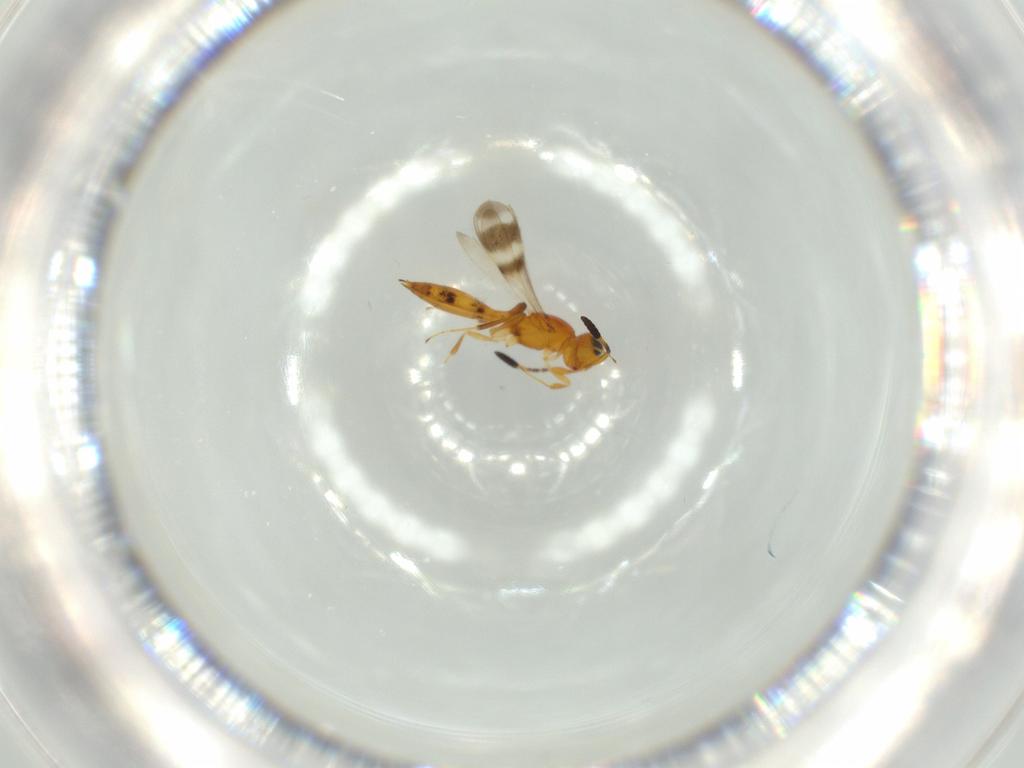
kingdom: Animalia
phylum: Arthropoda
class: Insecta
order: Hymenoptera
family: Scelionidae
